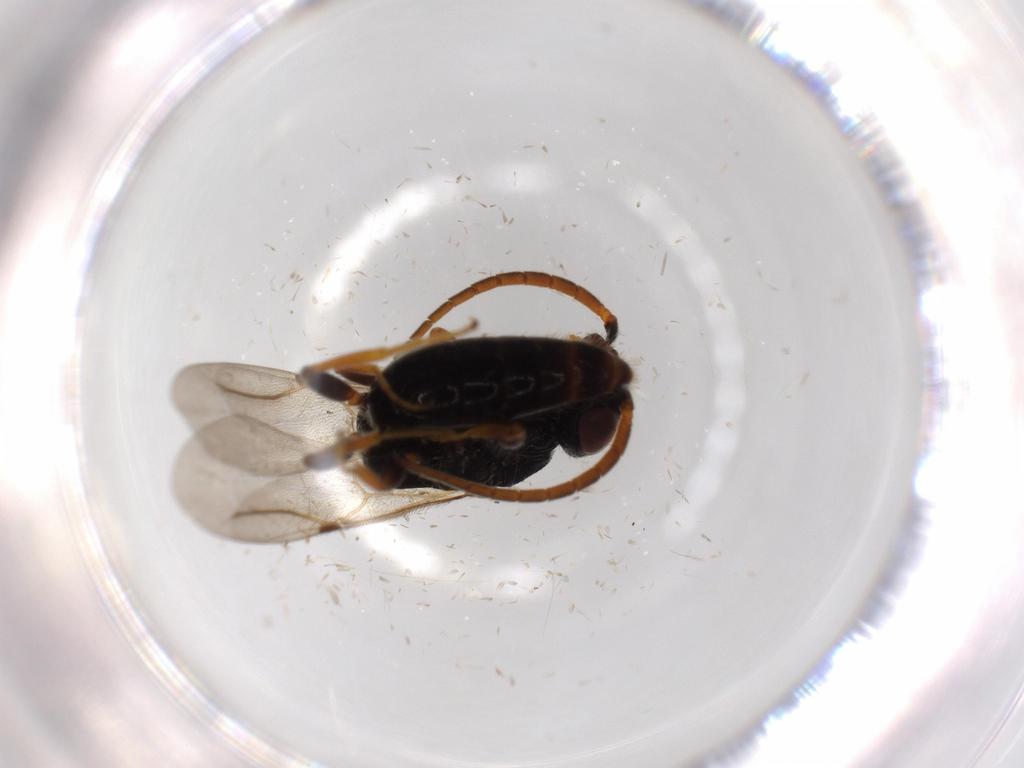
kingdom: Animalia
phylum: Arthropoda
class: Insecta
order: Hymenoptera
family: Bethylidae
